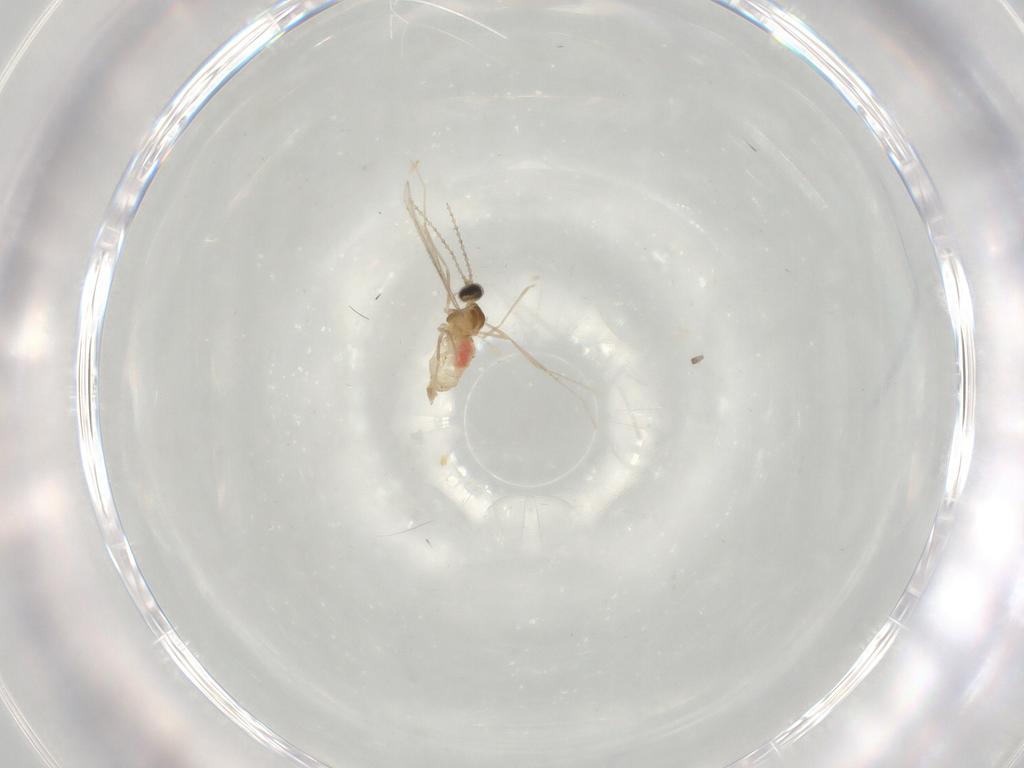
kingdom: Animalia
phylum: Arthropoda
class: Insecta
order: Diptera
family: Cecidomyiidae
